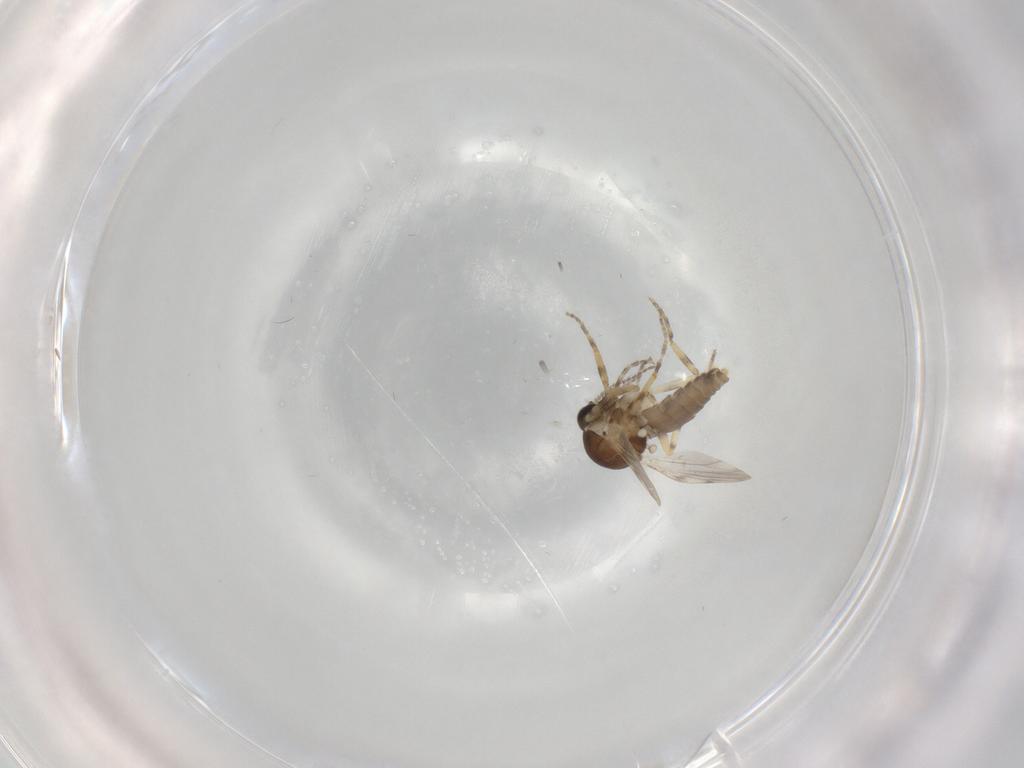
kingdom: Animalia
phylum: Arthropoda
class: Insecta
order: Diptera
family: Ceratopogonidae
